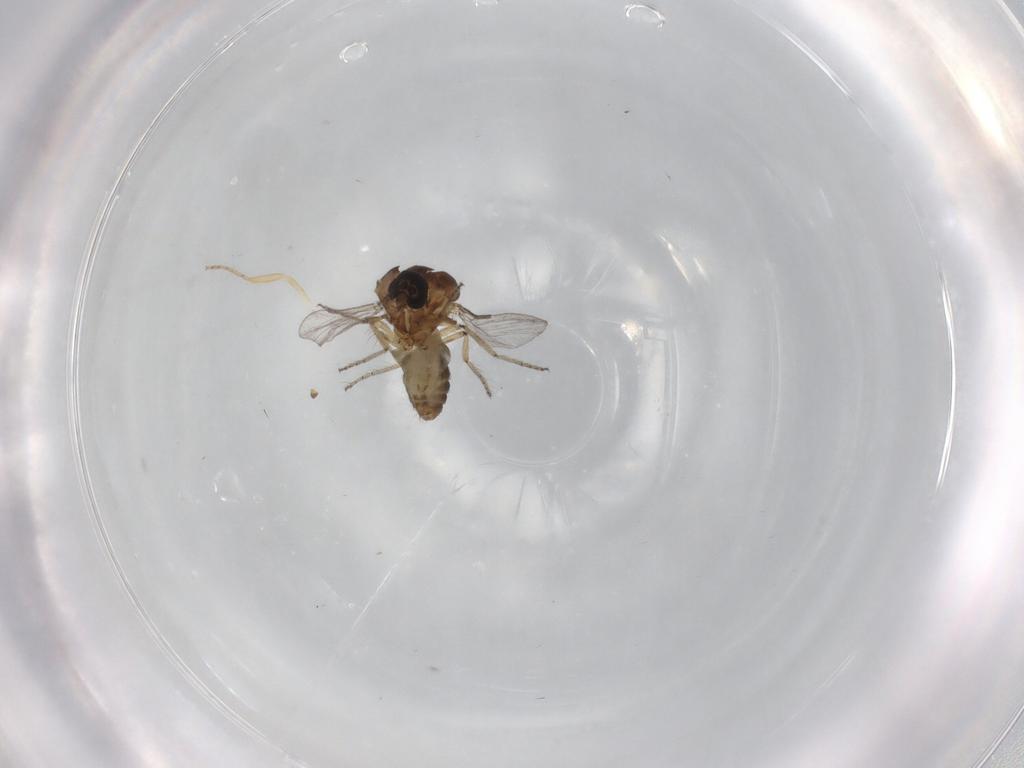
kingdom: Animalia
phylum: Arthropoda
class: Insecta
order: Diptera
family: Ceratopogonidae
